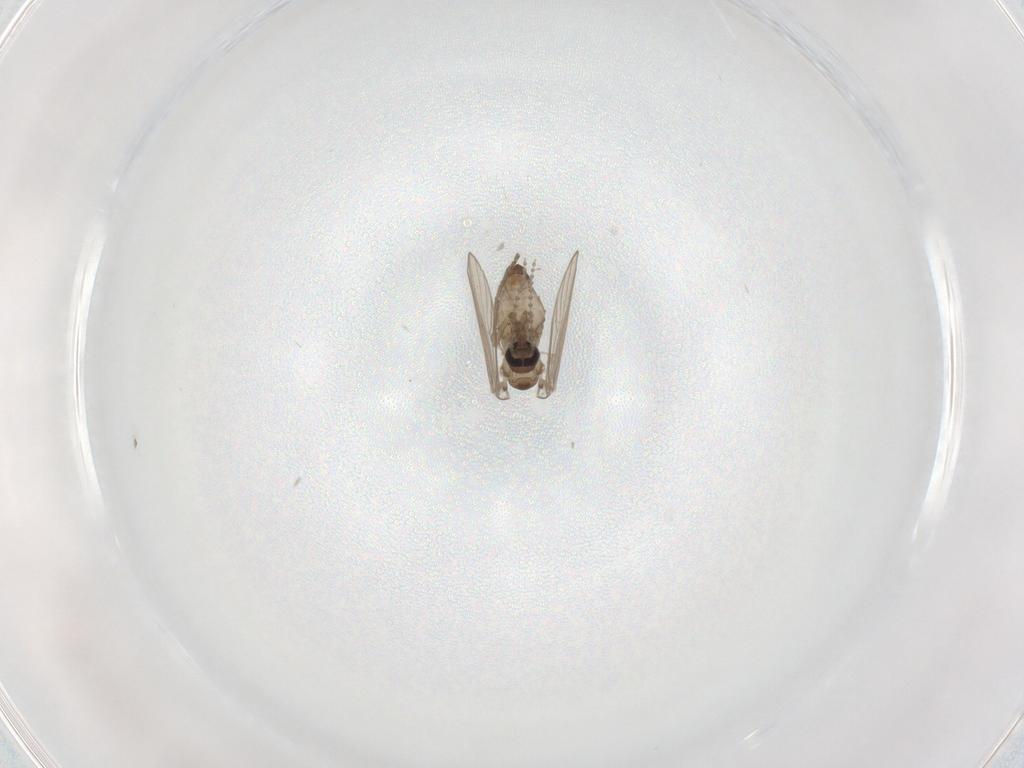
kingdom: Animalia
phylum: Arthropoda
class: Insecta
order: Diptera
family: Psychodidae
